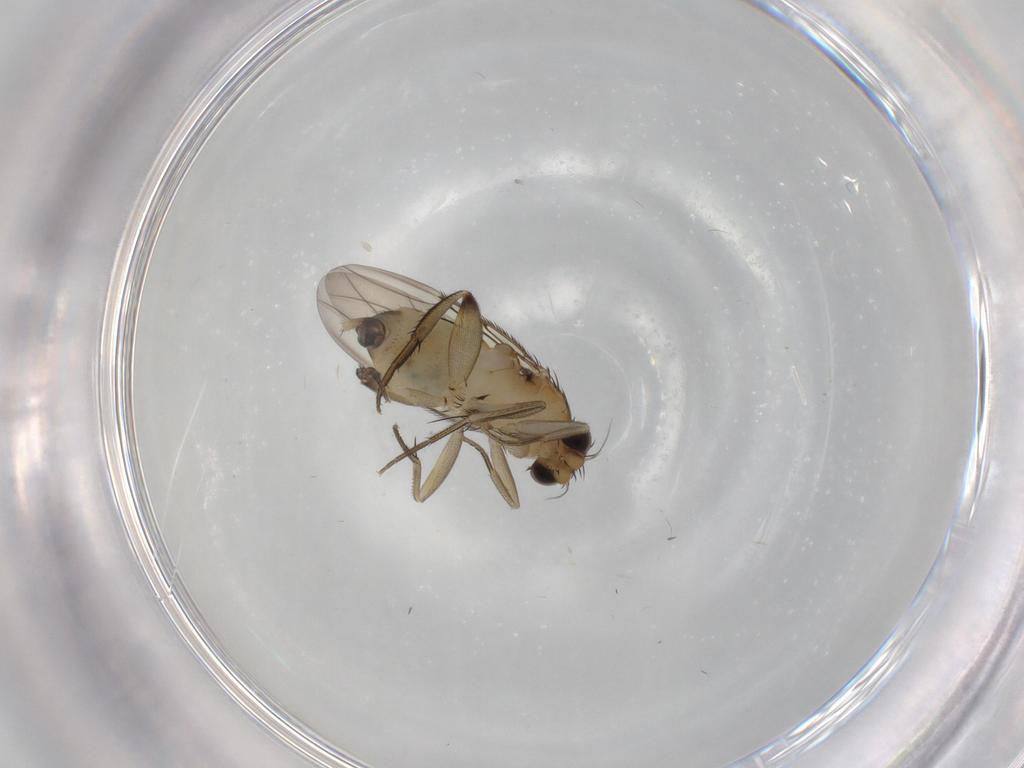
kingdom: Animalia
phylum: Arthropoda
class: Insecta
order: Diptera
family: Phoridae
